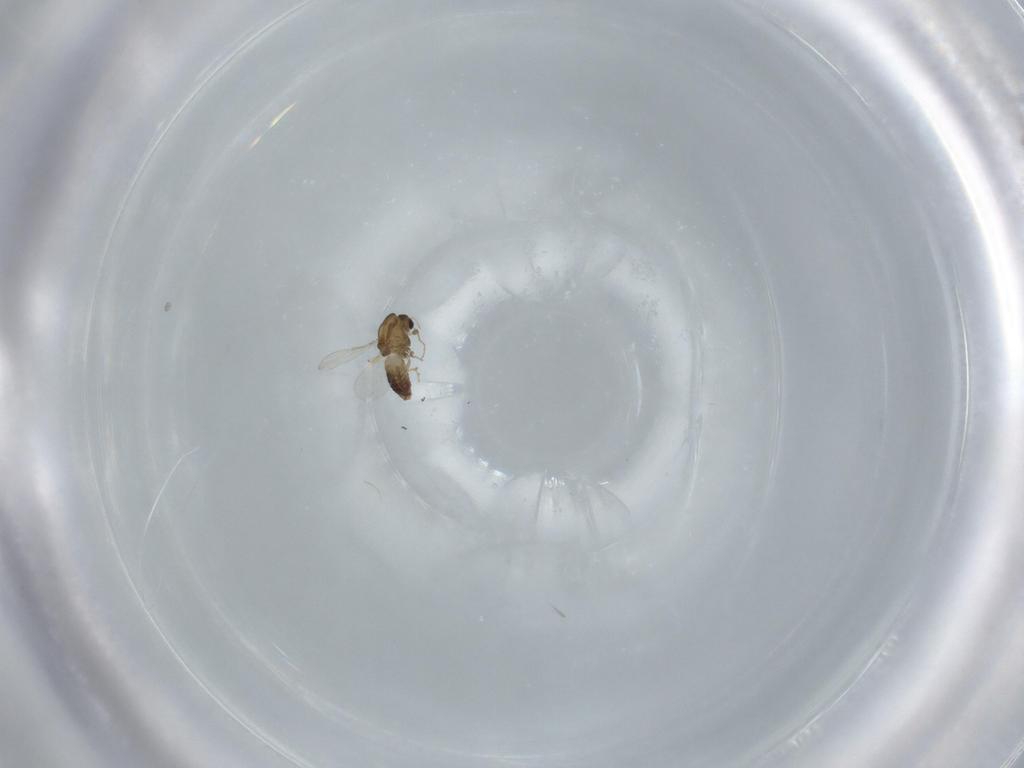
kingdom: Animalia
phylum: Arthropoda
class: Insecta
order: Diptera
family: Chironomidae
